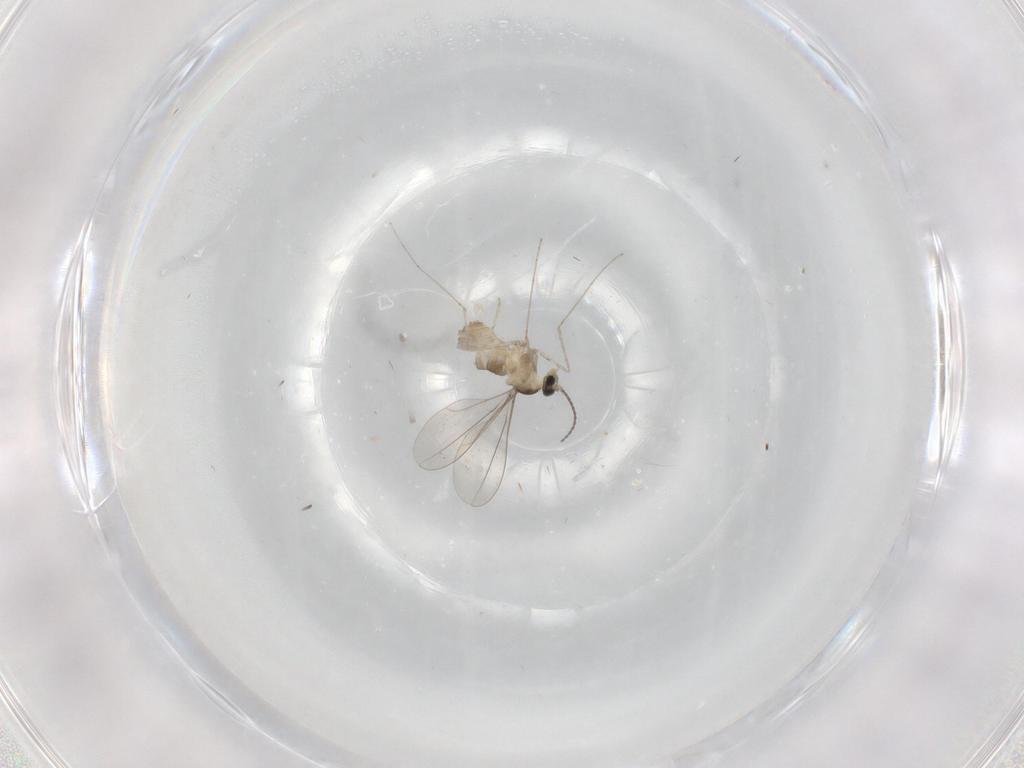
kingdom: Animalia
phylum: Arthropoda
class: Insecta
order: Diptera
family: Cecidomyiidae
